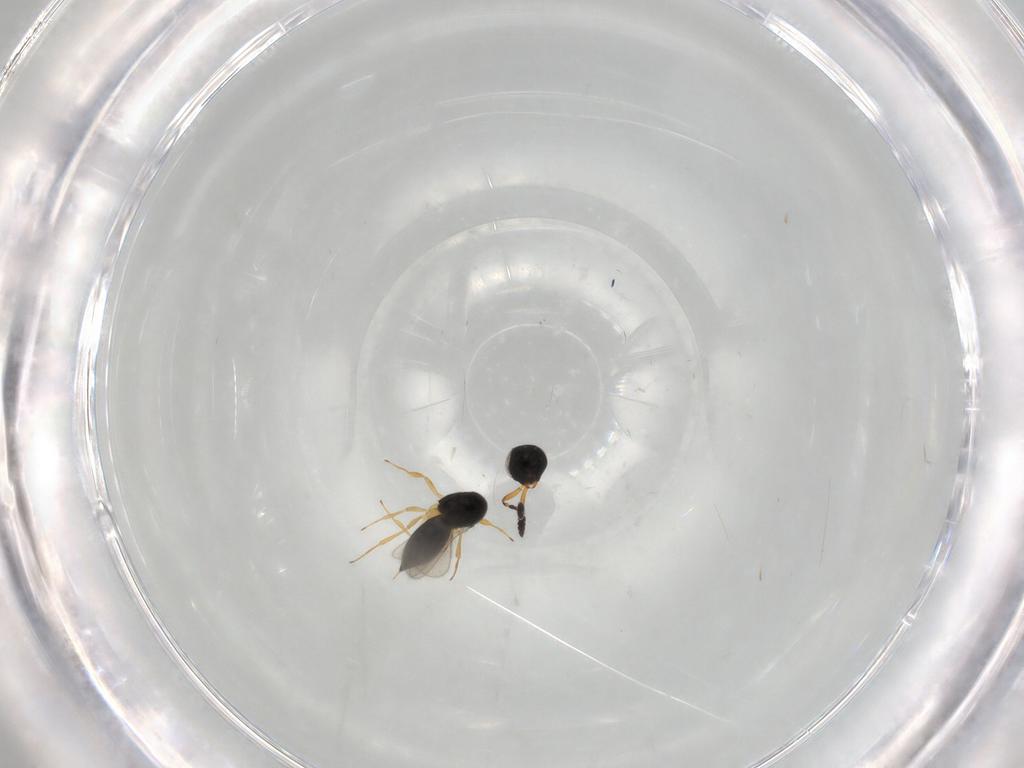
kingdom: Animalia
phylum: Arthropoda
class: Insecta
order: Hymenoptera
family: Scelionidae
